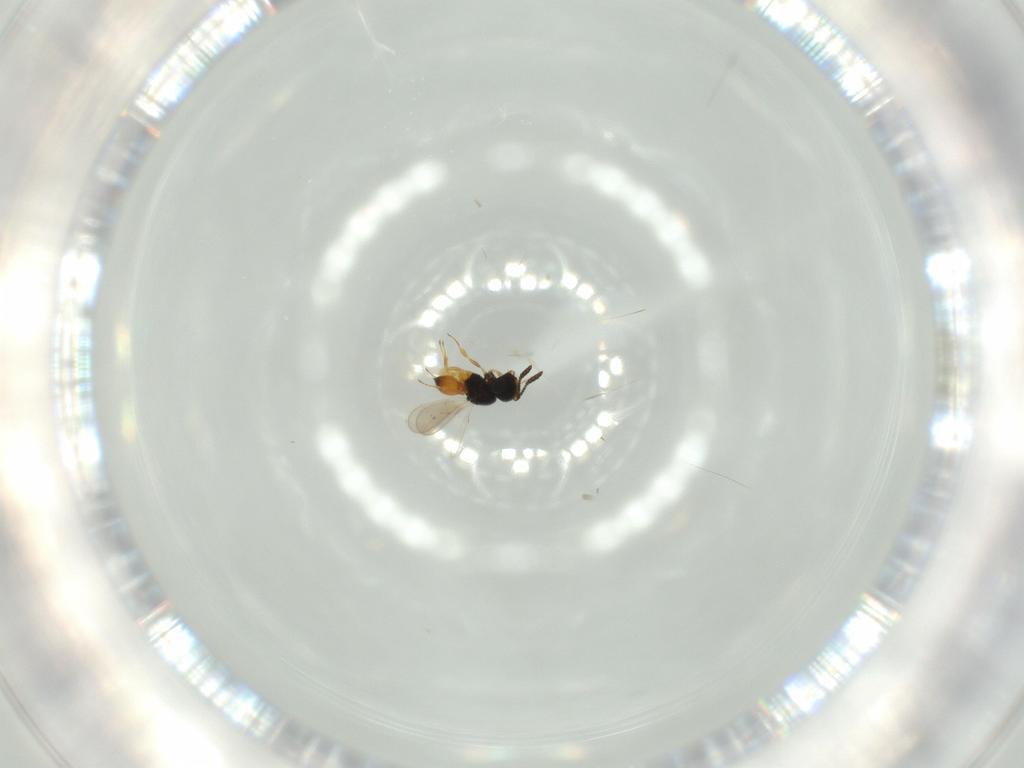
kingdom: Animalia
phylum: Arthropoda
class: Insecta
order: Hymenoptera
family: Scelionidae
